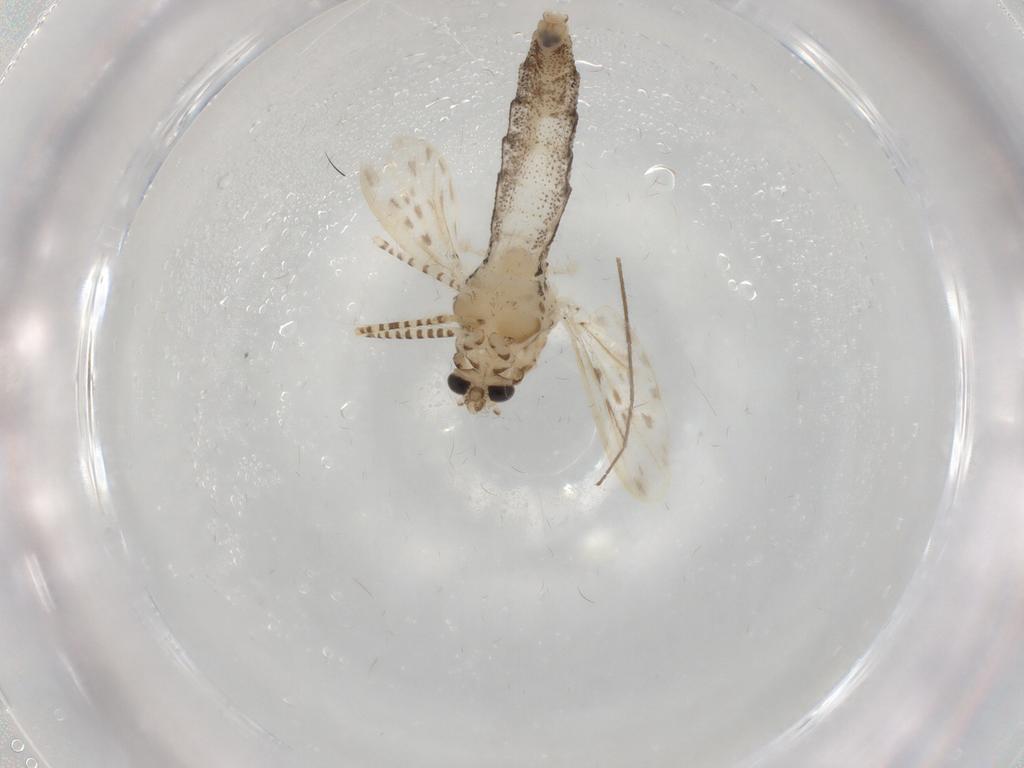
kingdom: Animalia
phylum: Arthropoda
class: Insecta
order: Diptera
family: Chaoboridae
